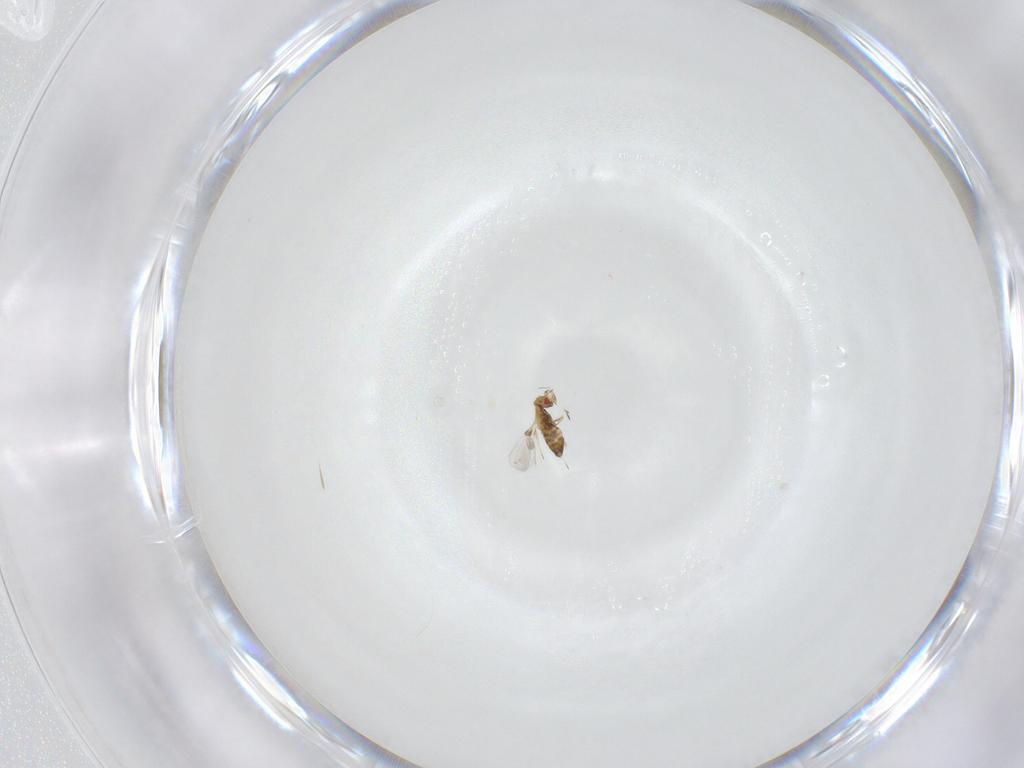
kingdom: Animalia
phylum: Arthropoda
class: Insecta
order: Hymenoptera
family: Trichogrammatidae
